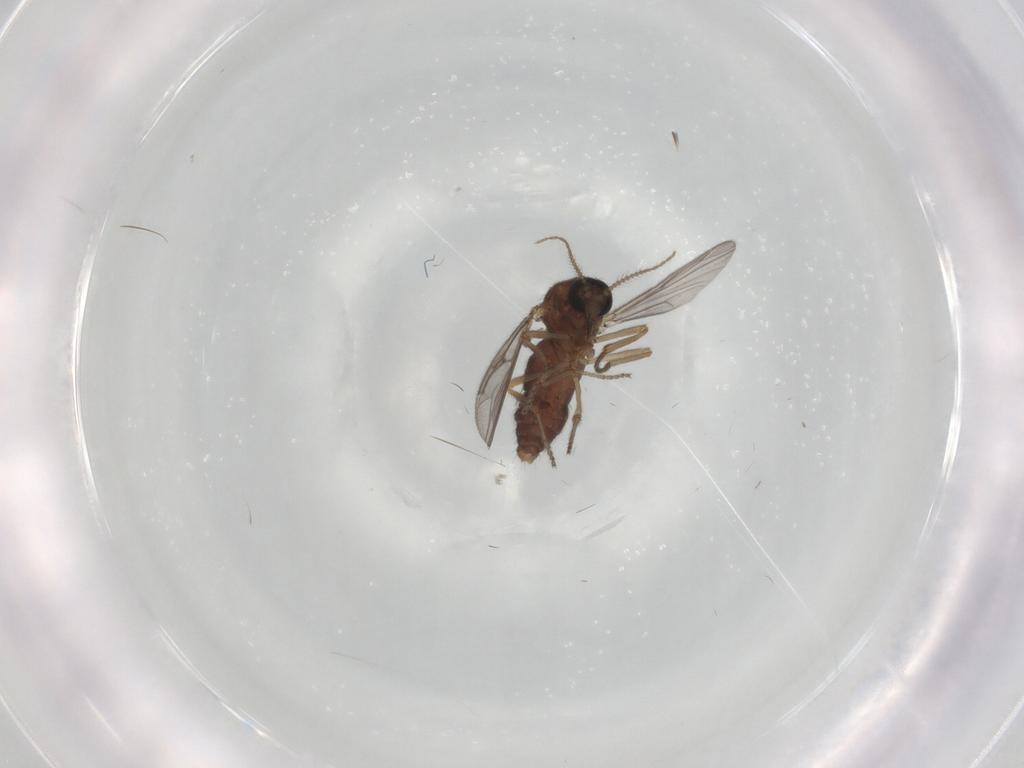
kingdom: Animalia
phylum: Arthropoda
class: Insecta
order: Diptera
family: Ceratopogonidae
